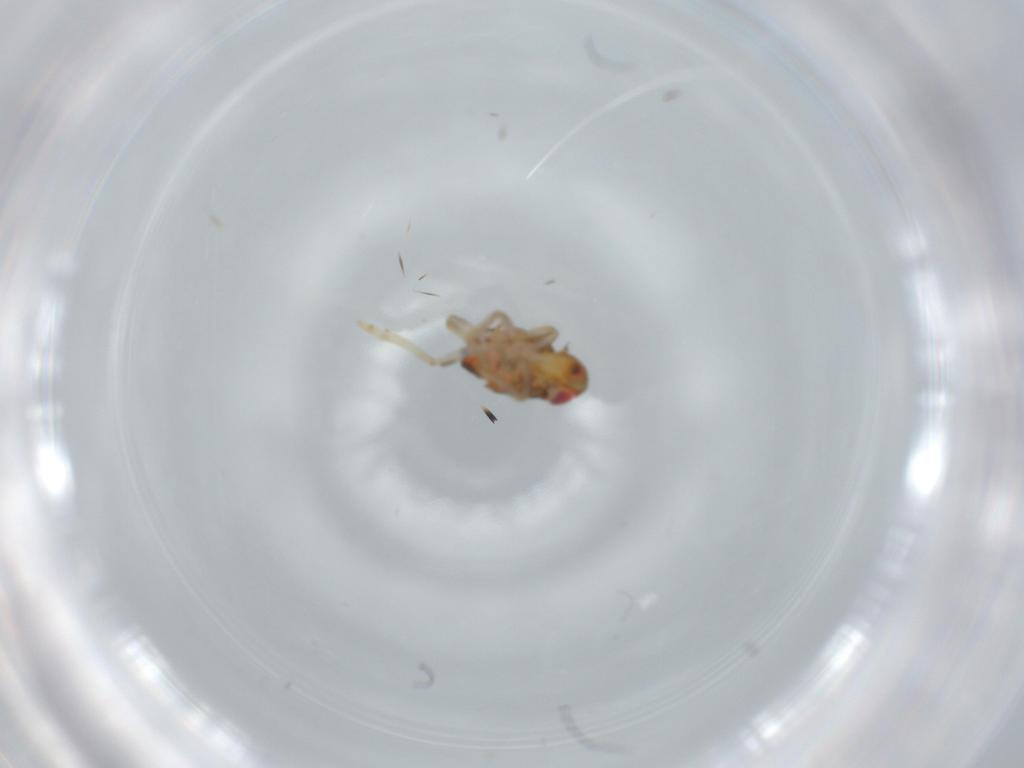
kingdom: Animalia
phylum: Arthropoda
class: Insecta
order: Hemiptera
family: Issidae
